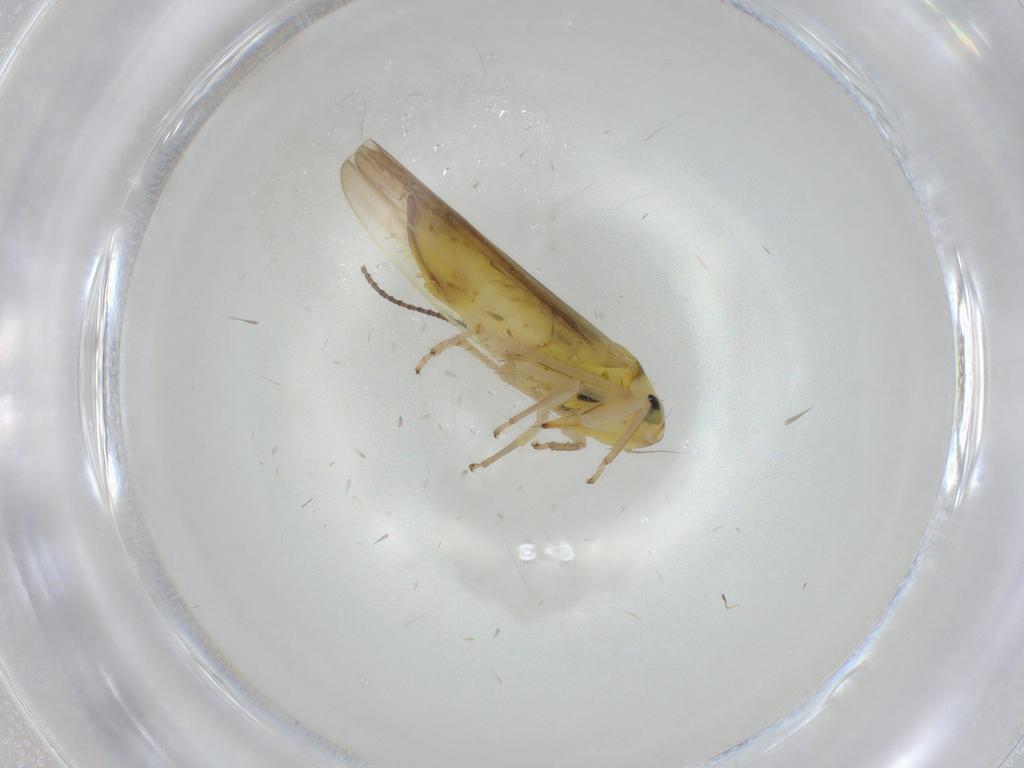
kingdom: Animalia
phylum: Arthropoda
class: Insecta
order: Hemiptera
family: Cicadellidae
